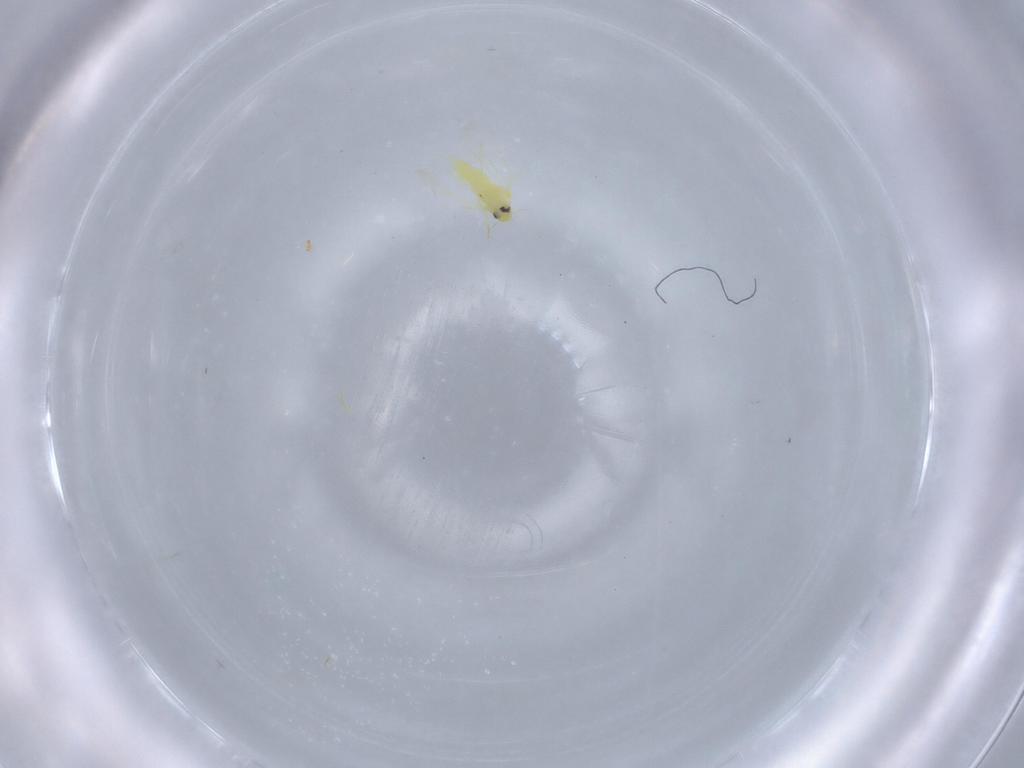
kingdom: Animalia
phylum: Arthropoda
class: Insecta
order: Hemiptera
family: Aleyrodidae
